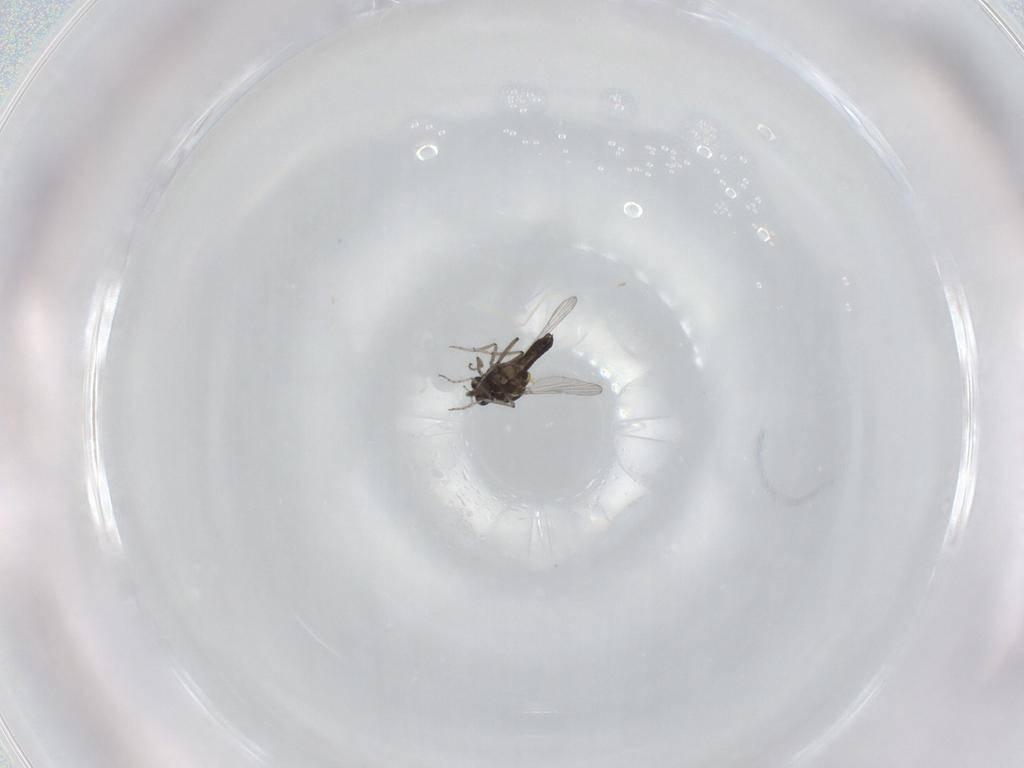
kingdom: Animalia
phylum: Arthropoda
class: Insecta
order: Diptera
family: Ceratopogonidae
